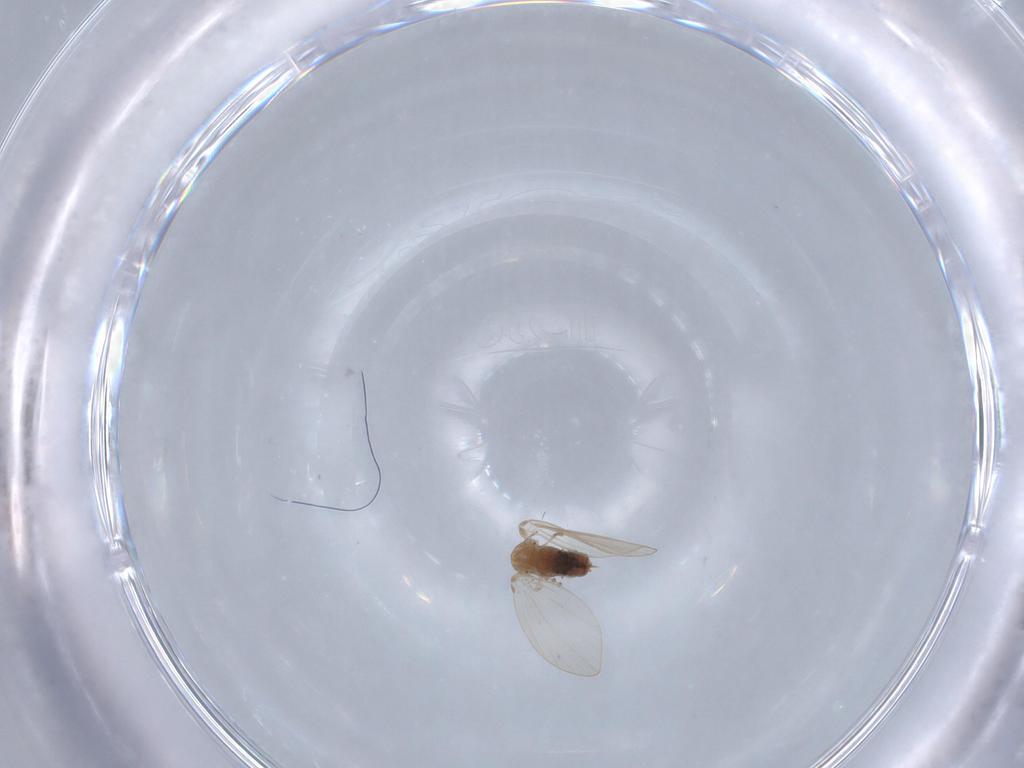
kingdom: Animalia
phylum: Arthropoda
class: Insecta
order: Diptera
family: Psychodidae
